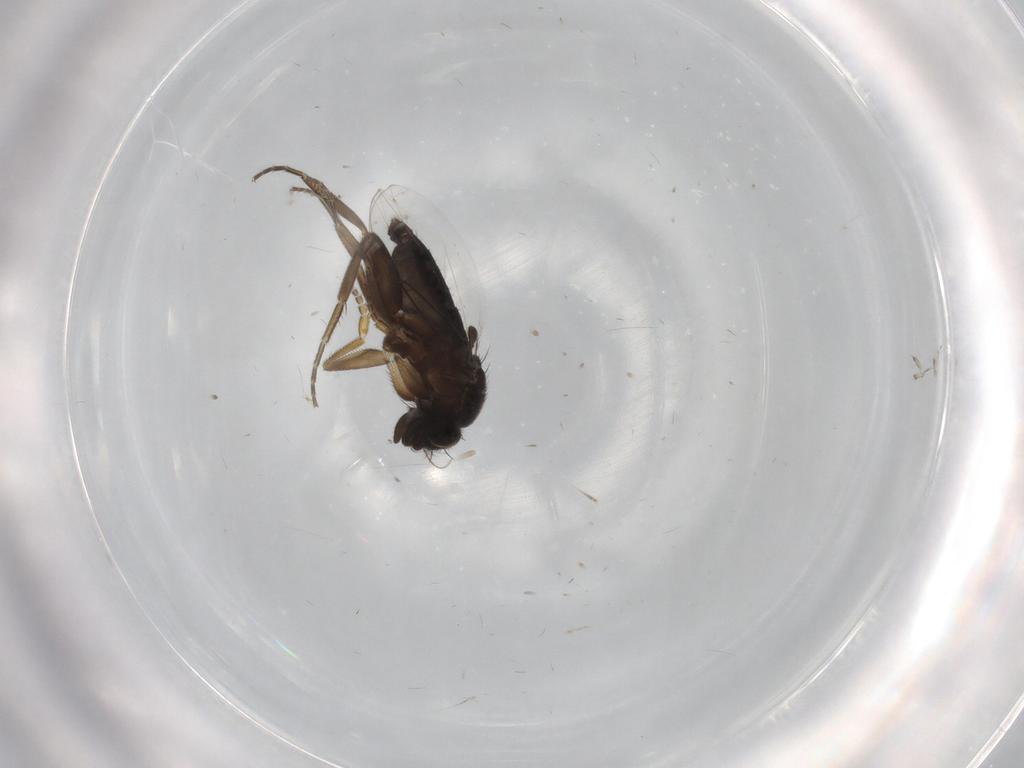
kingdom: Animalia
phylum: Arthropoda
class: Insecta
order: Diptera
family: Phoridae
